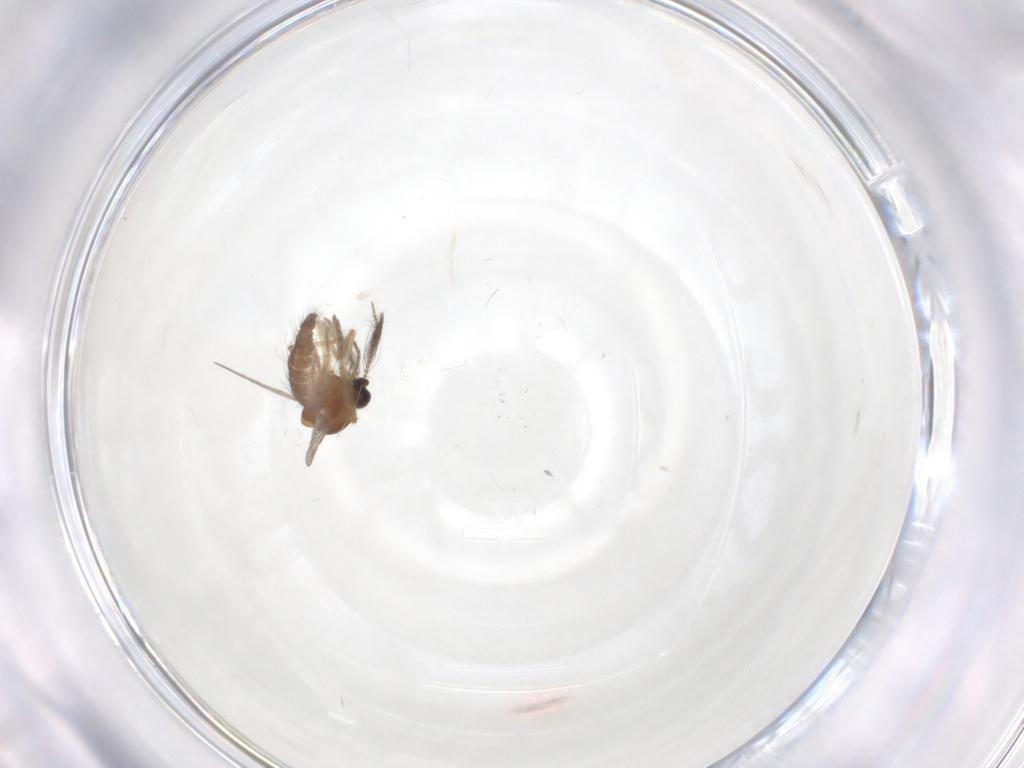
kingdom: Animalia
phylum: Arthropoda
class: Insecta
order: Diptera
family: Ceratopogonidae
